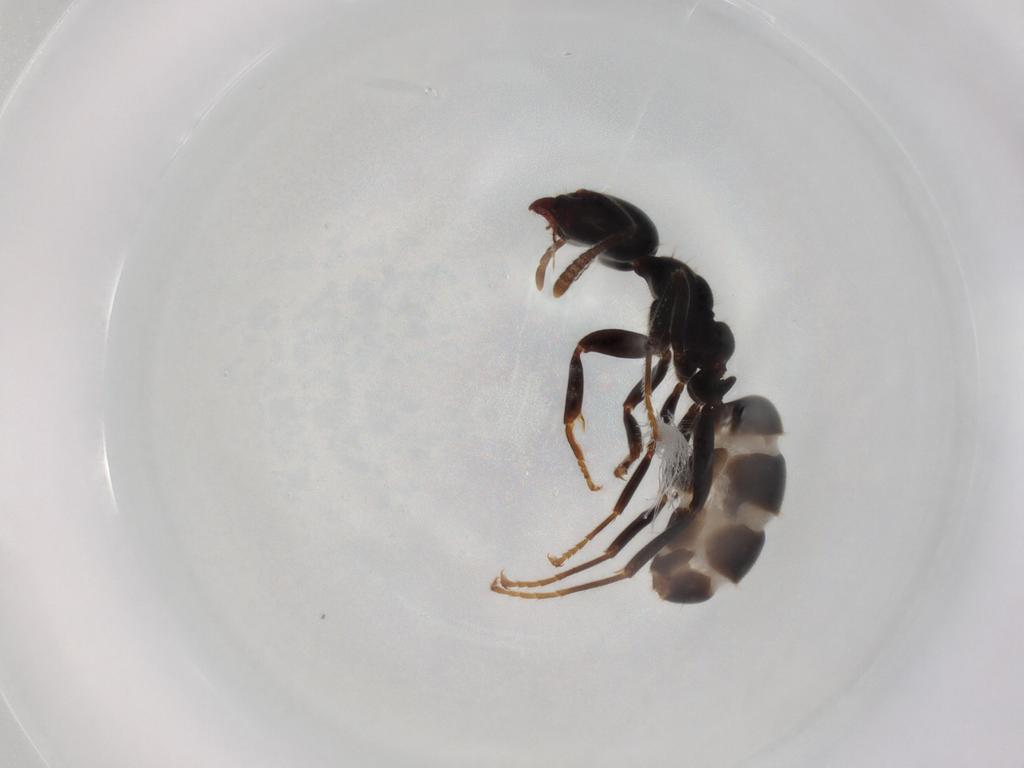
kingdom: Animalia
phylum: Arthropoda
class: Insecta
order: Hymenoptera
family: Formicidae
